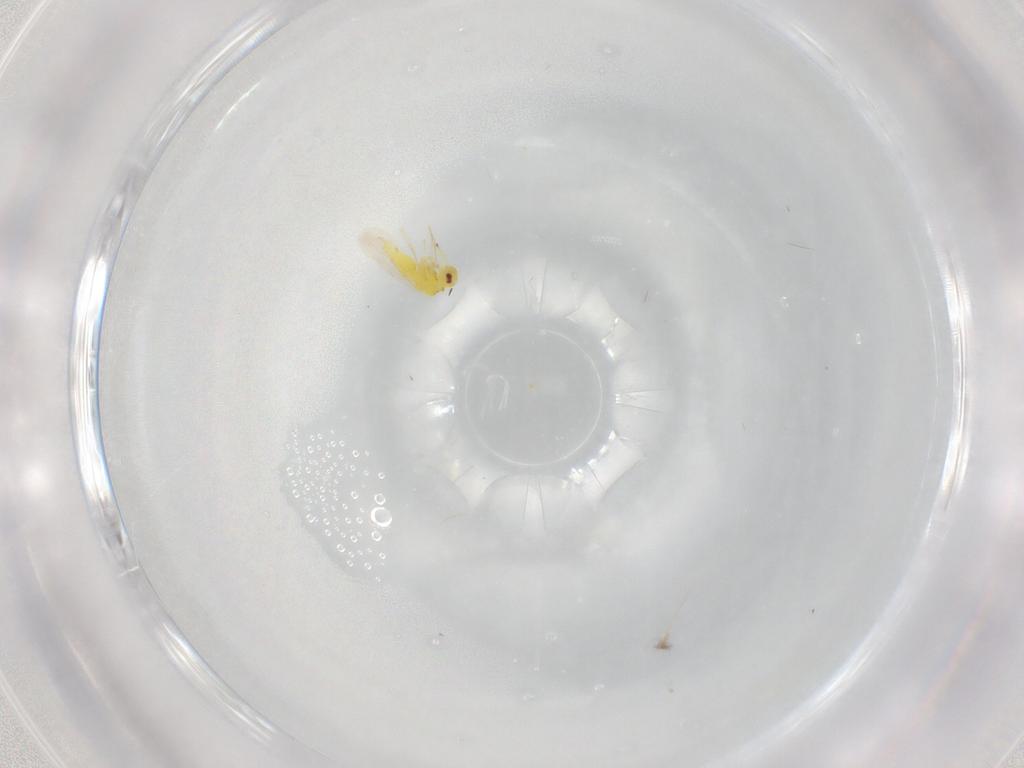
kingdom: Animalia
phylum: Arthropoda
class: Insecta
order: Hemiptera
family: Aleyrodidae
